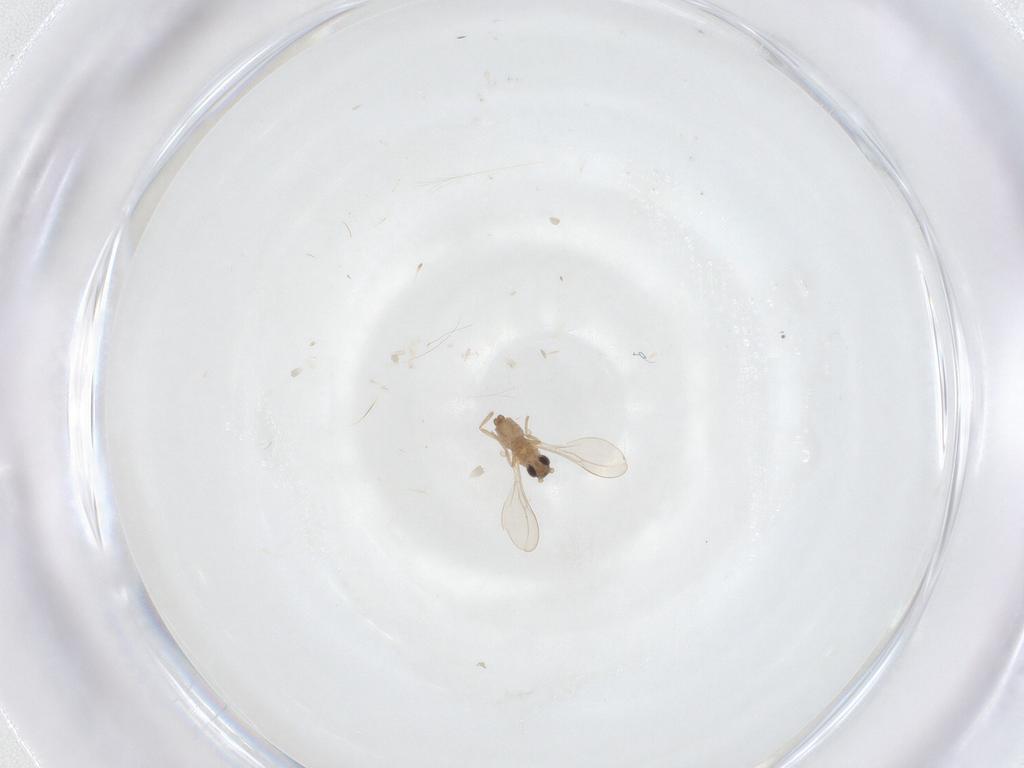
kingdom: Animalia
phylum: Arthropoda
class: Insecta
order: Diptera
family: Cecidomyiidae
